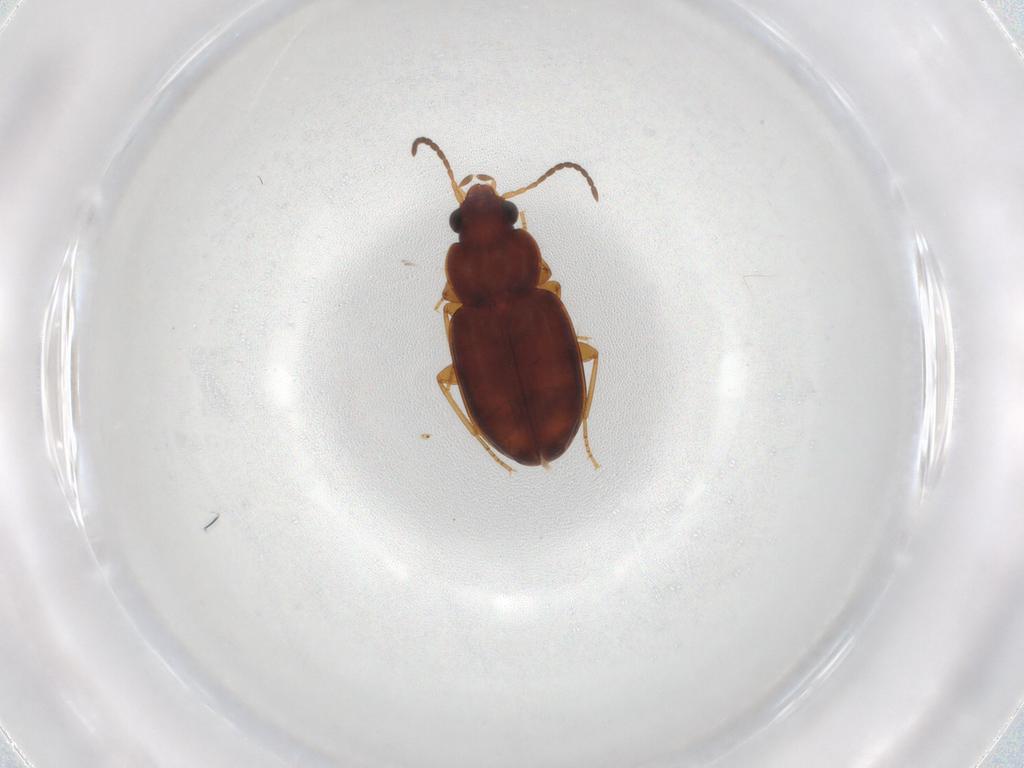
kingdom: Animalia
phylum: Arthropoda
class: Insecta
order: Coleoptera
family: Carabidae
